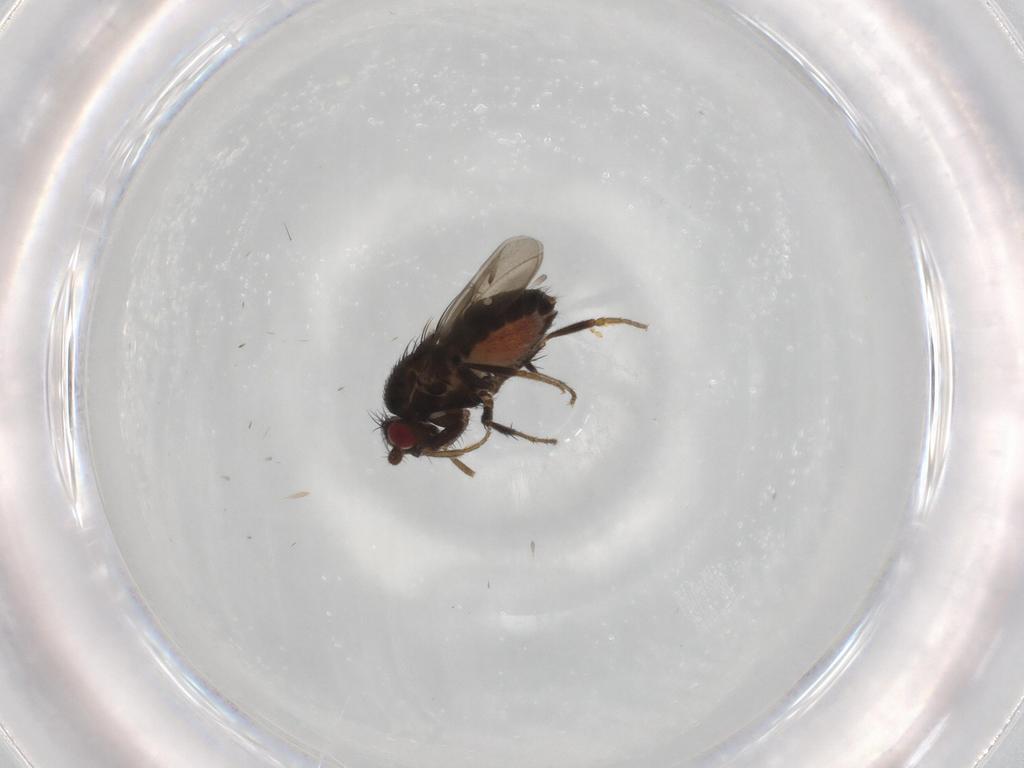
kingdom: Animalia
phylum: Arthropoda
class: Insecta
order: Diptera
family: Sphaeroceridae
